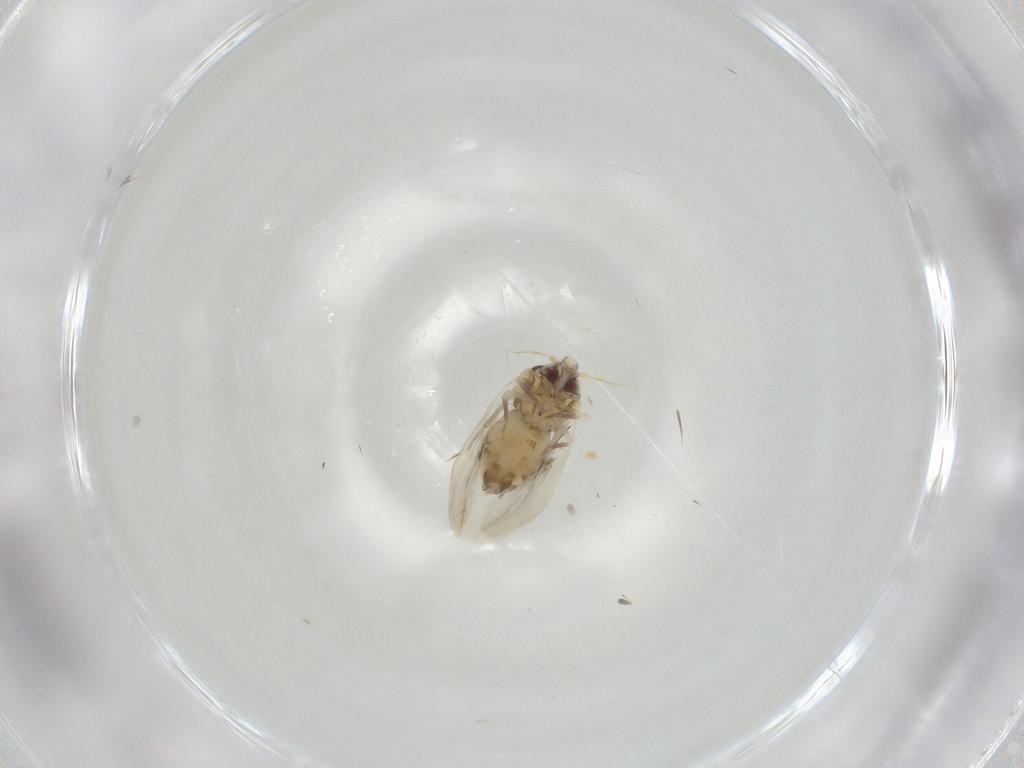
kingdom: Animalia
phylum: Arthropoda
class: Insecta
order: Hemiptera
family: Aleyrodidae
